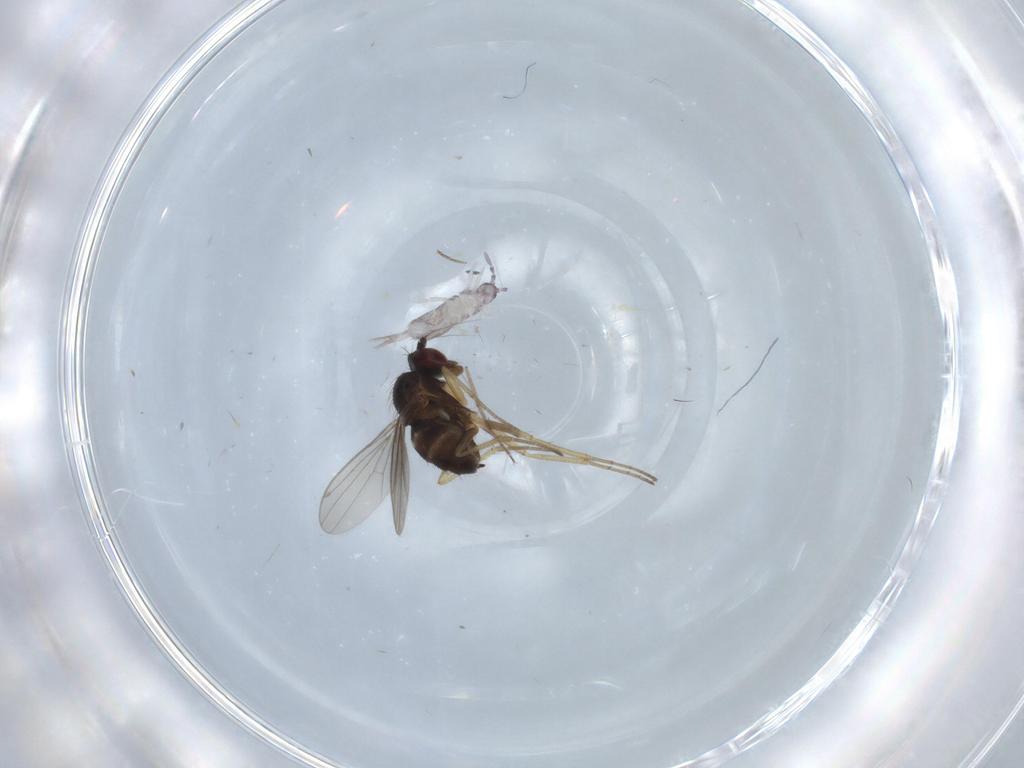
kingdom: Animalia
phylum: Arthropoda
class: Insecta
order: Diptera
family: Dolichopodidae
